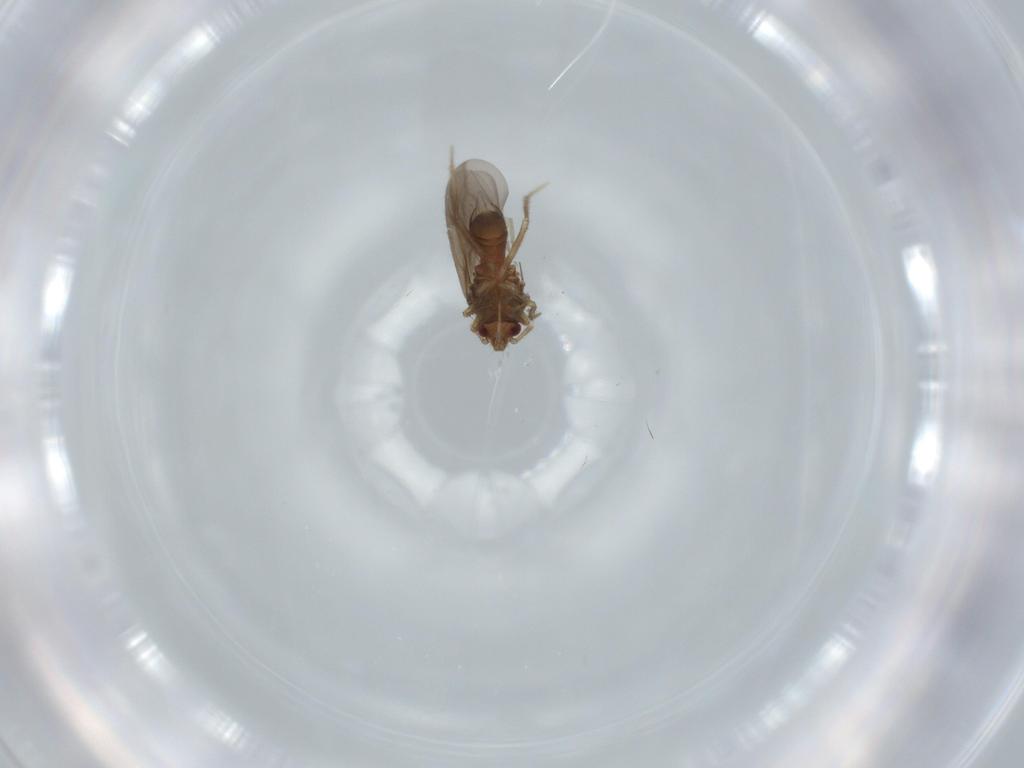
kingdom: Animalia
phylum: Arthropoda
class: Insecta
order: Hemiptera
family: Ceratocombidae
